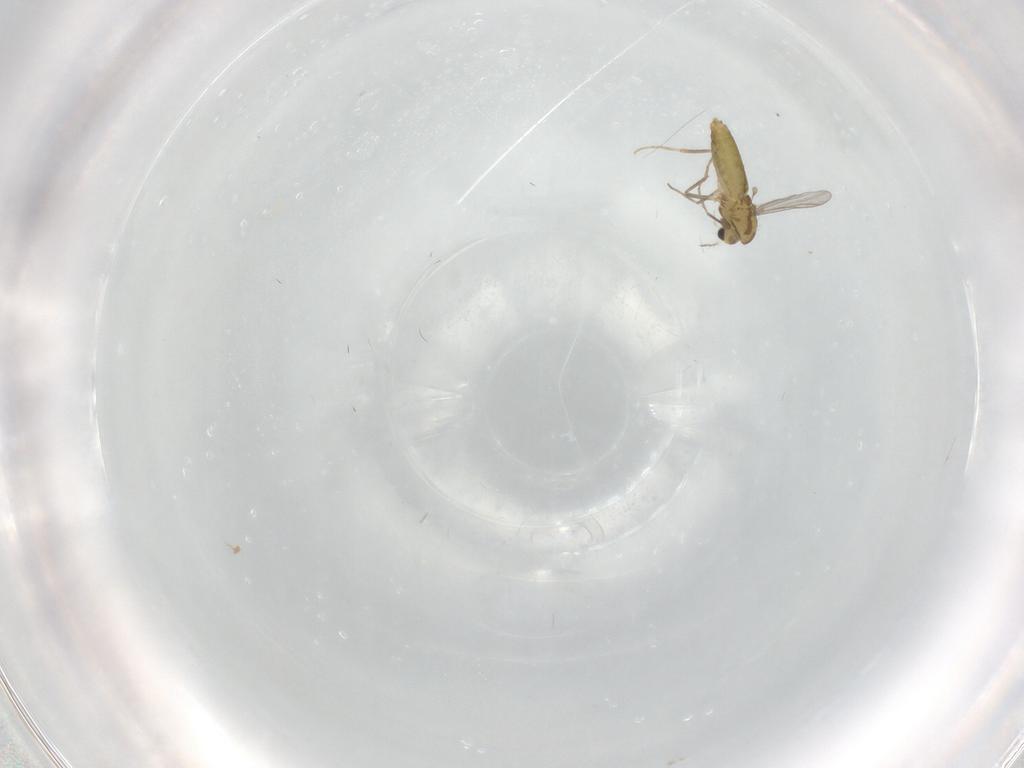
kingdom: Animalia
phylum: Arthropoda
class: Insecta
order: Diptera
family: Chironomidae
